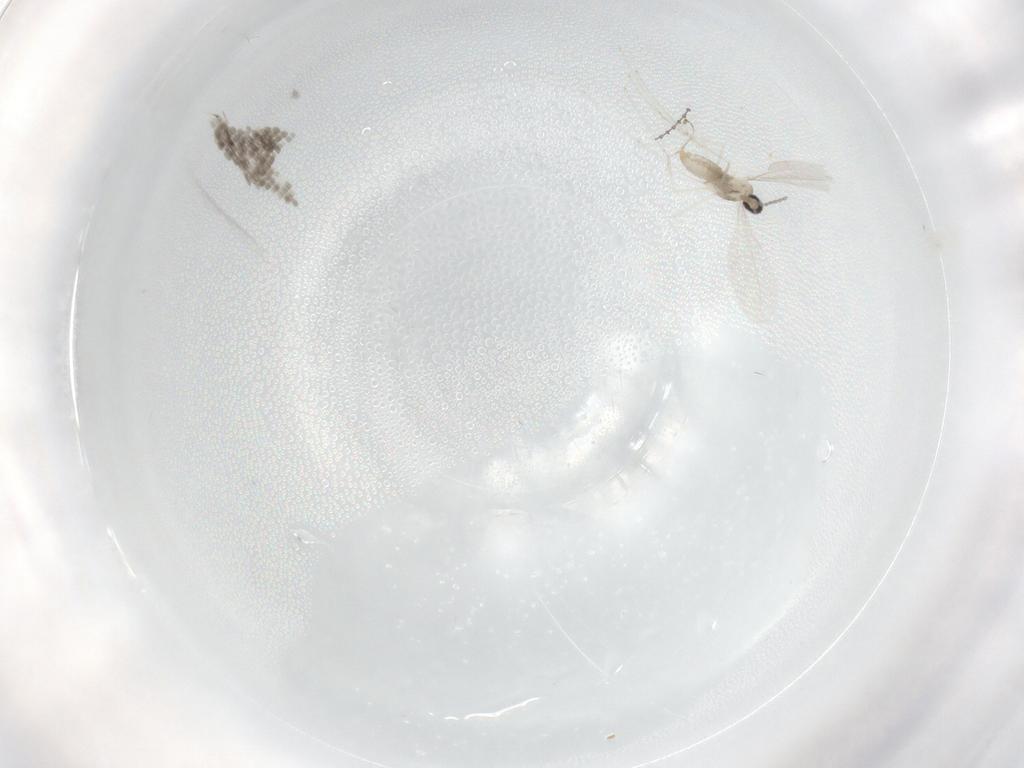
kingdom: Animalia
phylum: Arthropoda
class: Insecta
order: Diptera
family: Cecidomyiidae
